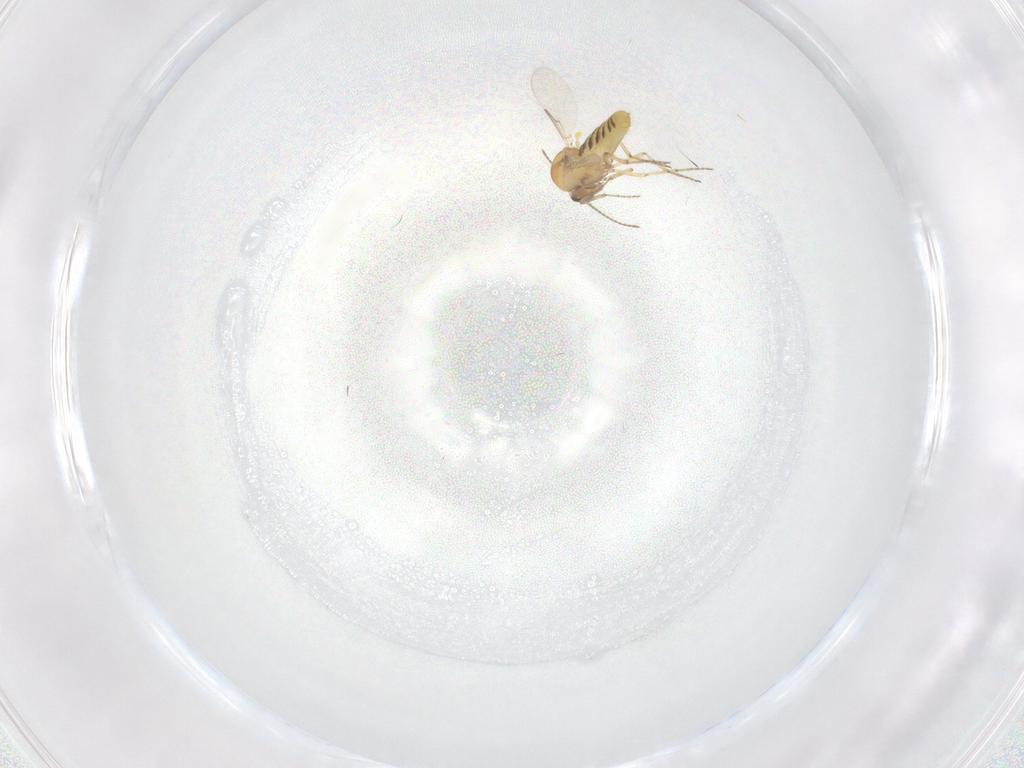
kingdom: Animalia
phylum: Arthropoda
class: Insecta
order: Diptera
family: Ceratopogonidae
